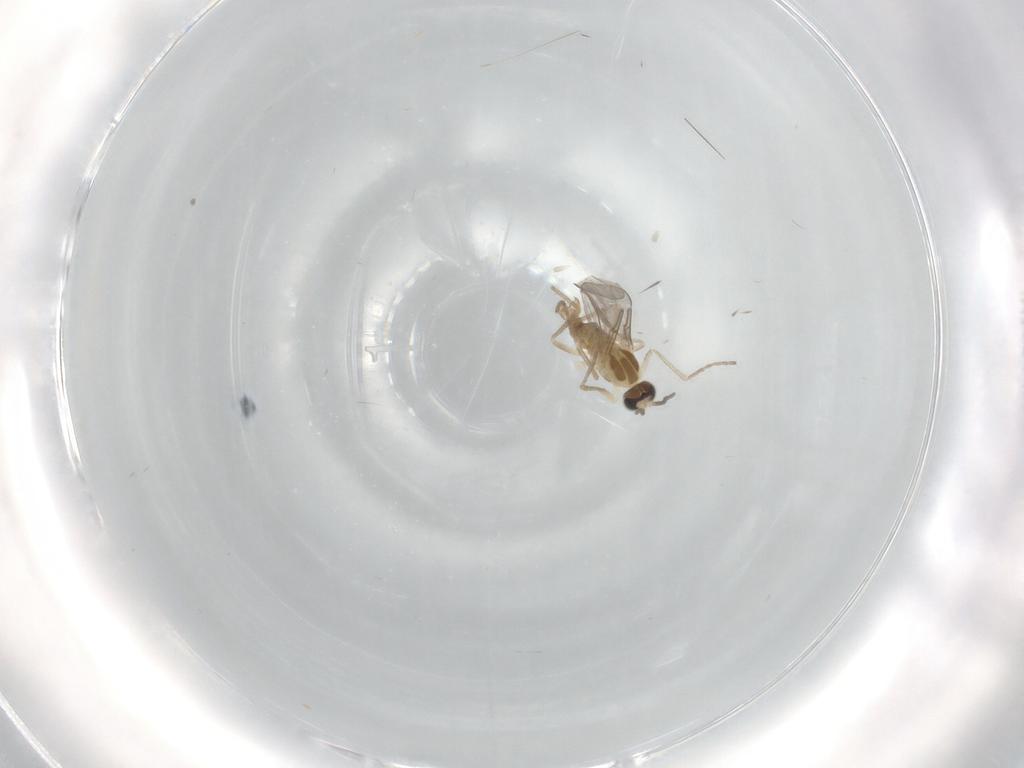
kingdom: Animalia
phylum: Arthropoda
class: Insecta
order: Diptera
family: Cecidomyiidae
